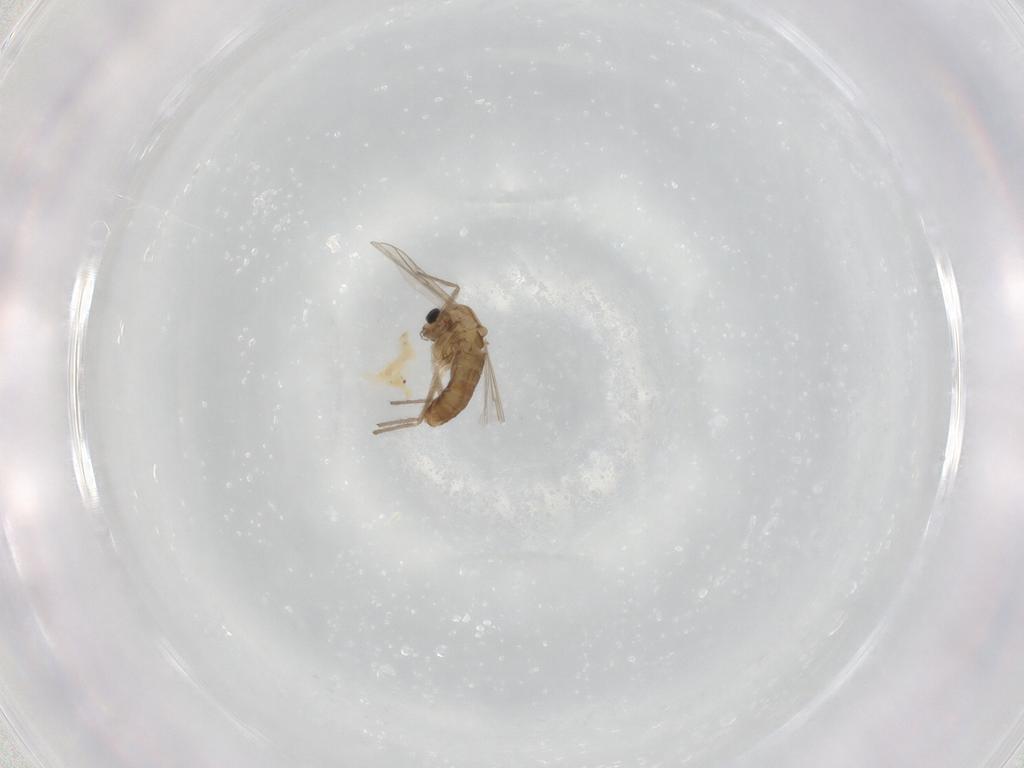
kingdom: Animalia
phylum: Arthropoda
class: Insecta
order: Diptera
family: Chironomidae
